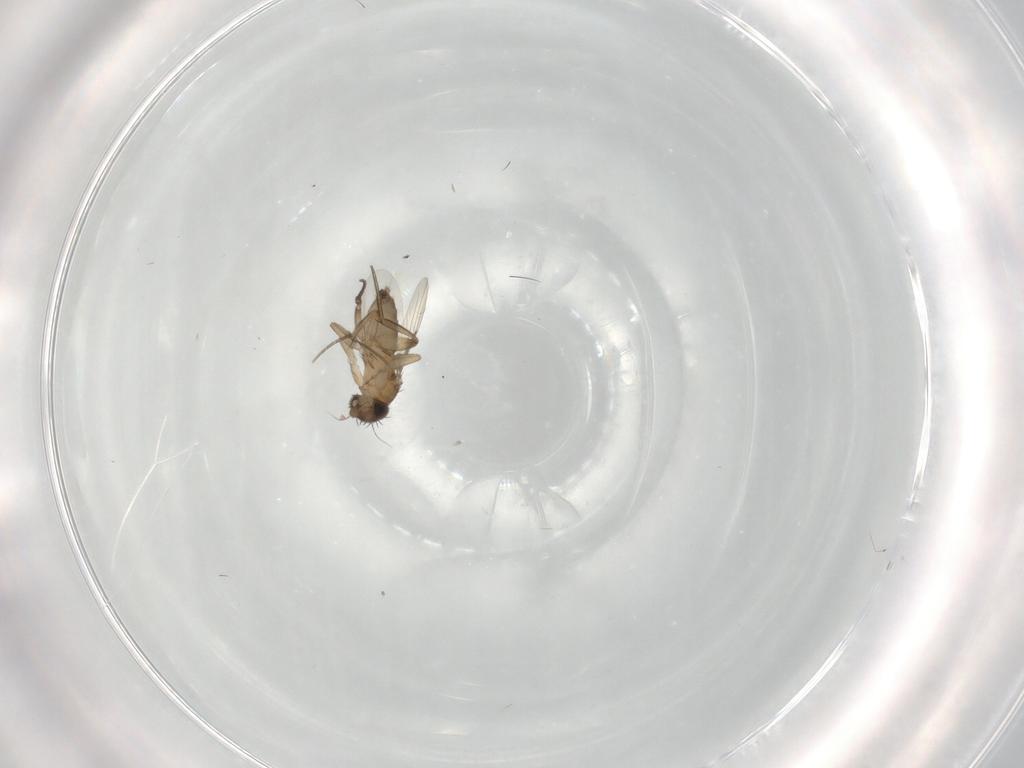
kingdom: Animalia
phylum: Arthropoda
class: Insecta
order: Diptera
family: Phoridae
